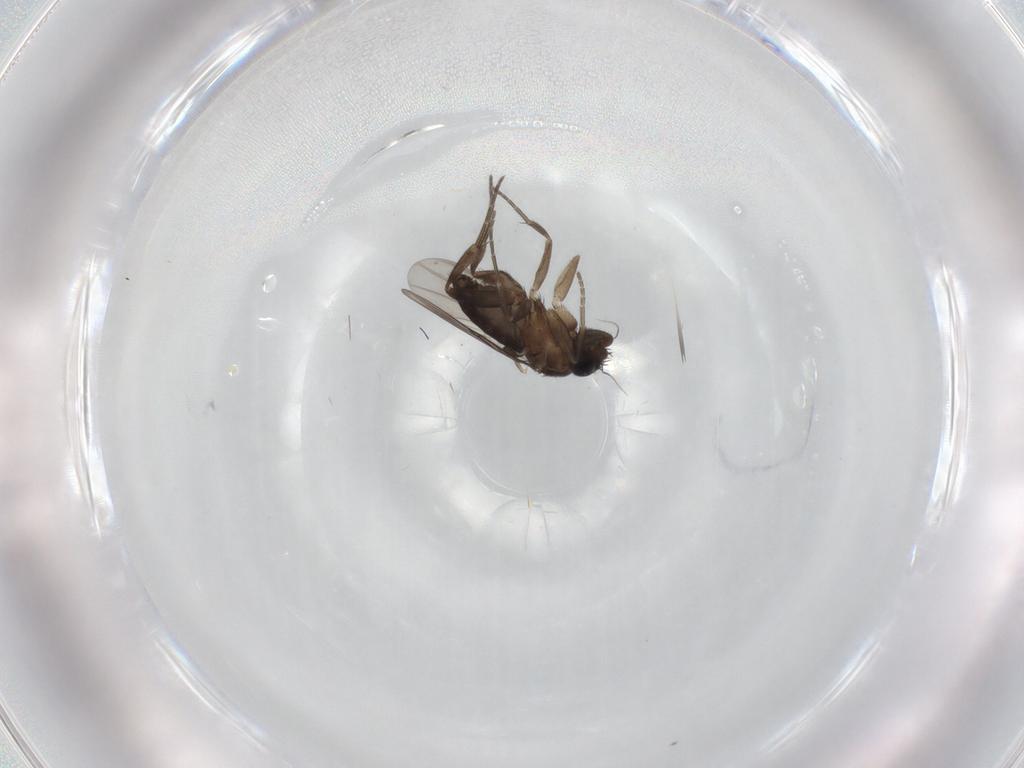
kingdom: Animalia
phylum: Arthropoda
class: Insecta
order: Diptera
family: Phoridae
